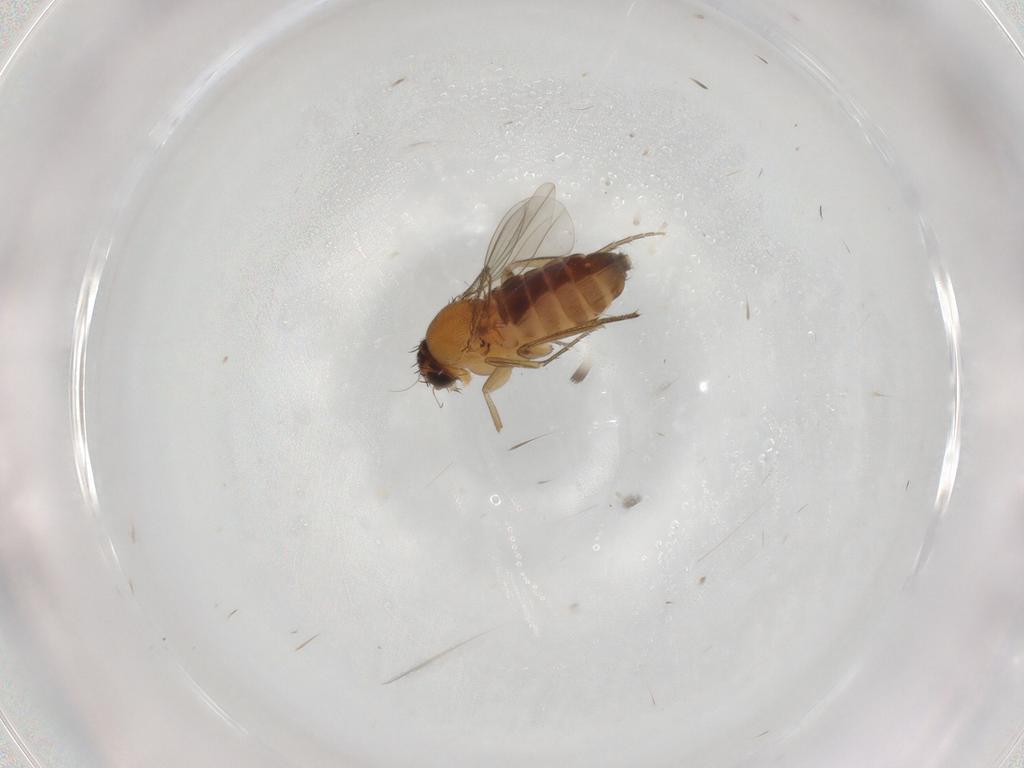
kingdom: Animalia
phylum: Arthropoda
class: Insecta
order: Diptera
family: Phoridae
